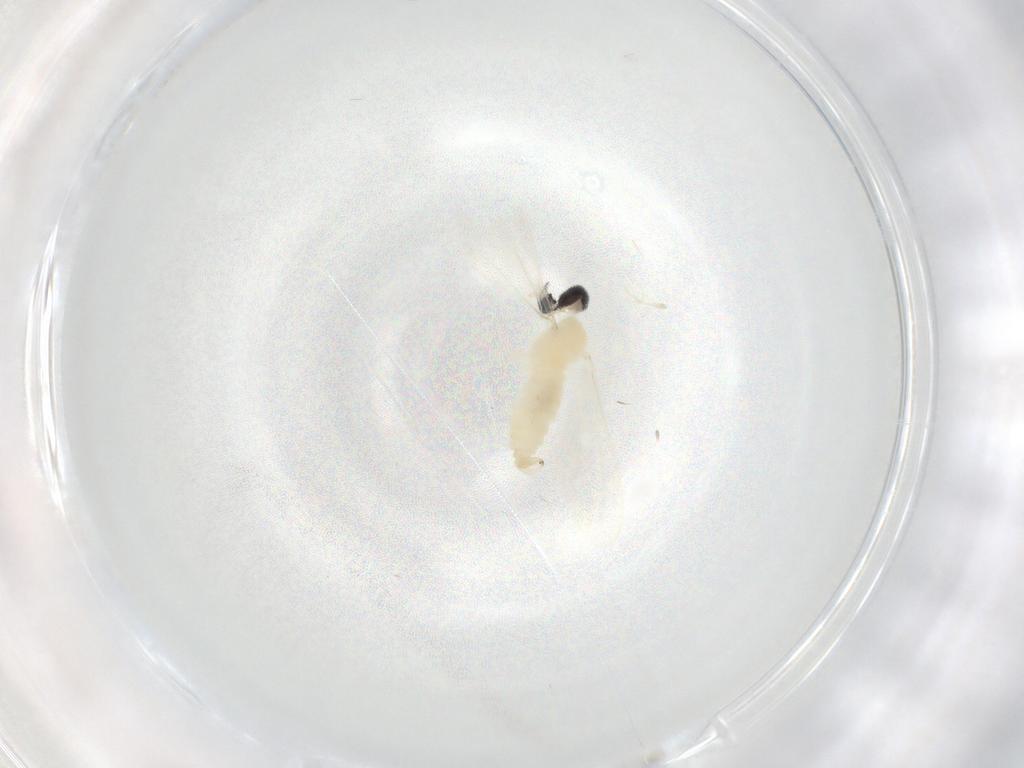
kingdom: Animalia
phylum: Arthropoda
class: Insecta
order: Diptera
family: Cecidomyiidae
